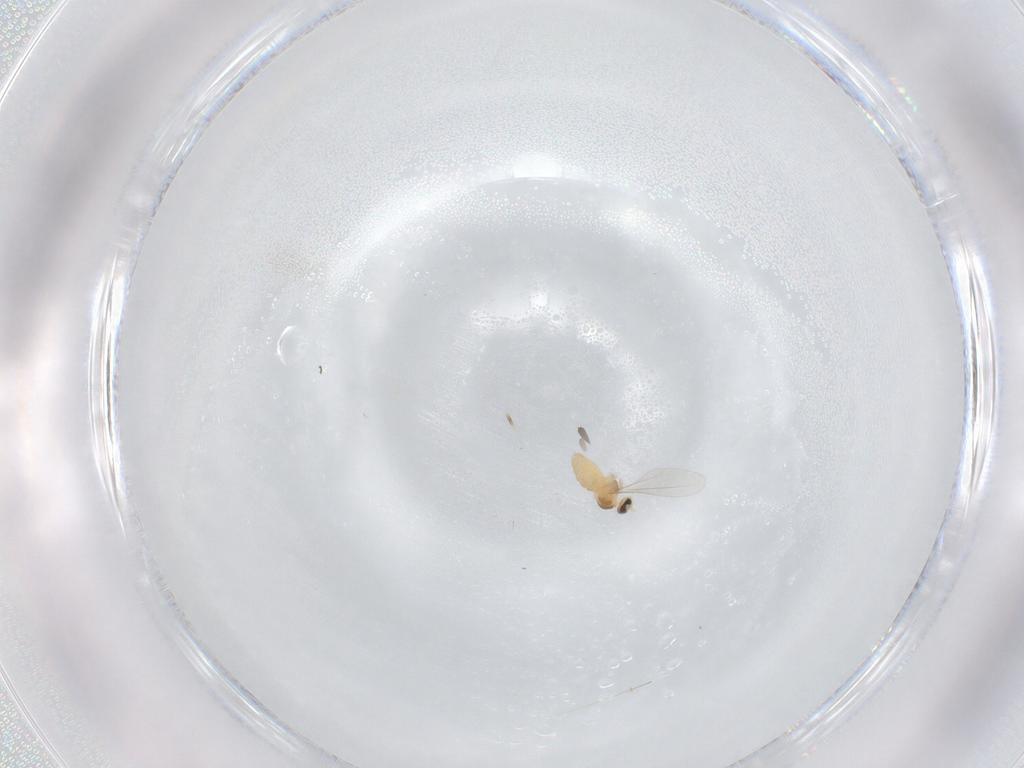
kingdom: Animalia
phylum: Arthropoda
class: Insecta
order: Diptera
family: Cecidomyiidae
